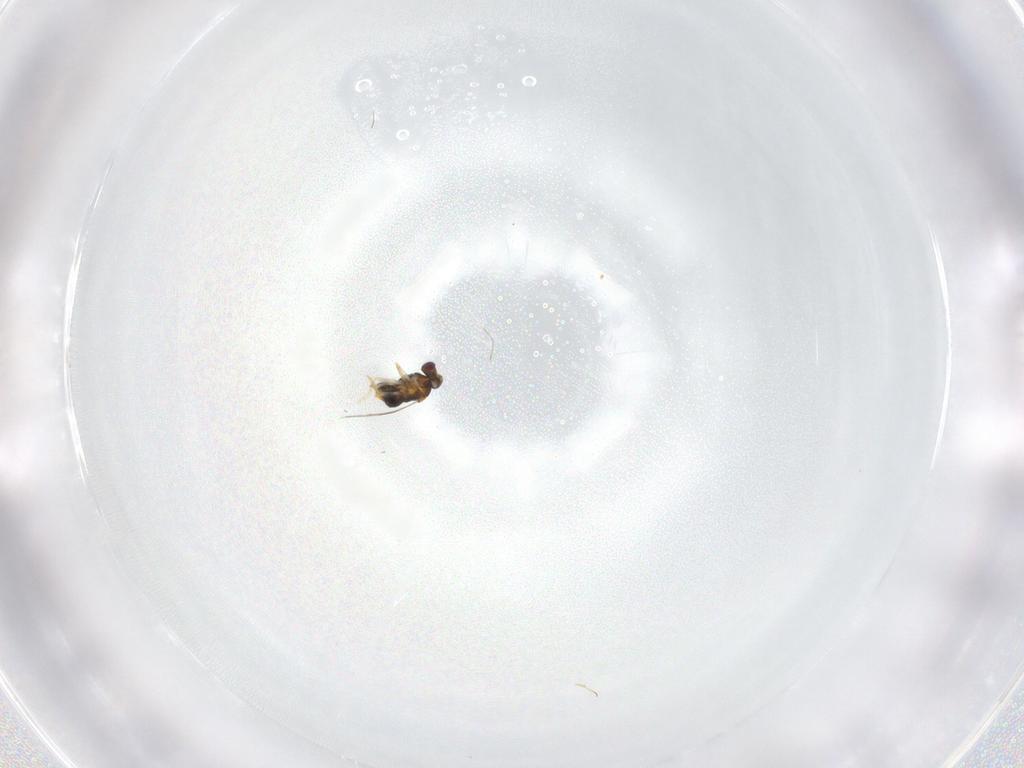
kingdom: Animalia
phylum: Arthropoda
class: Insecta
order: Hymenoptera
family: Aphelinidae
